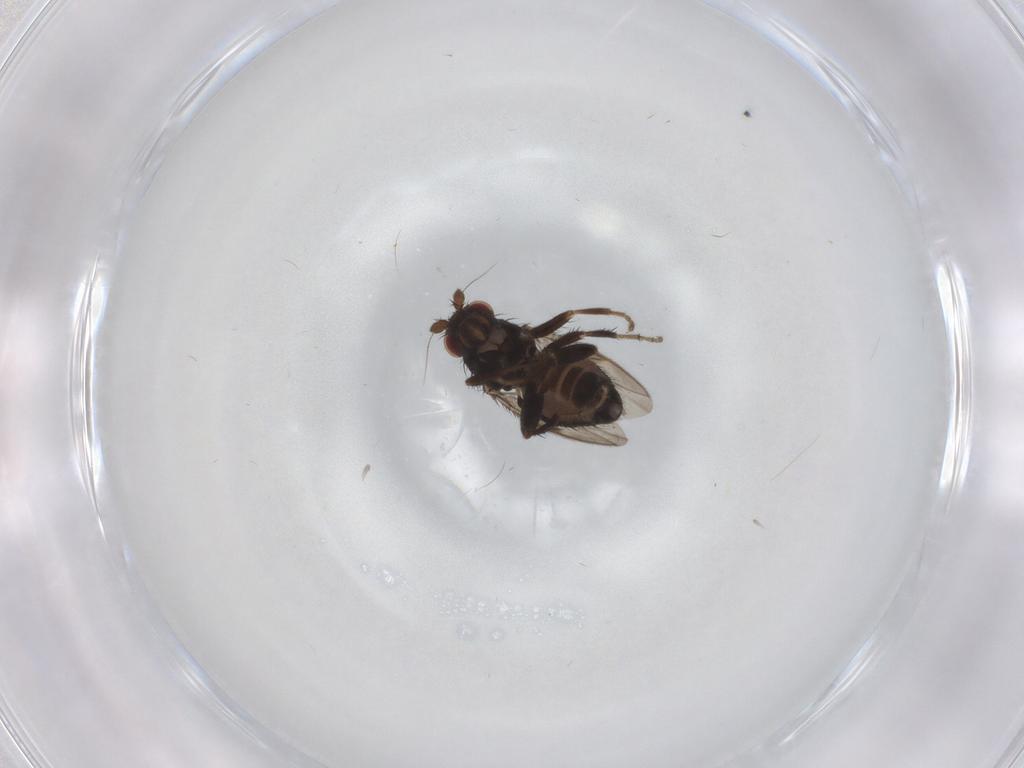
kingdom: Animalia
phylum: Arthropoda
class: Insecta
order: Diptera
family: Sphaeroceridae
